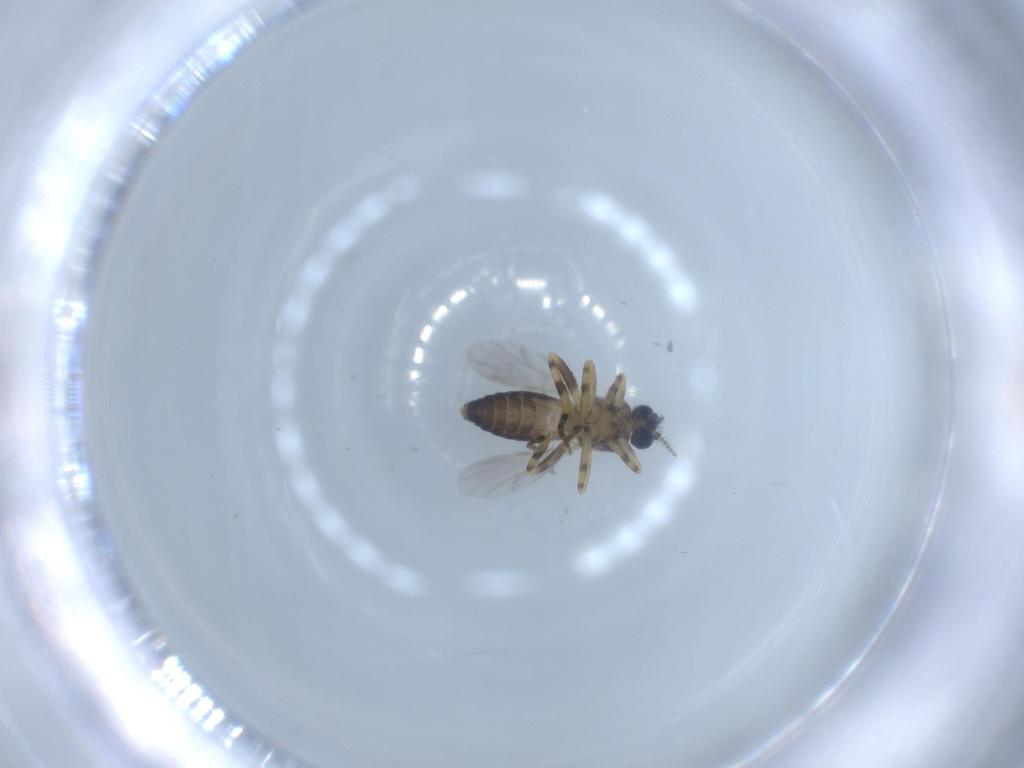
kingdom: Animalia
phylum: Arthropoda
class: Insecta
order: Diptera
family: Ceratopogonidae
